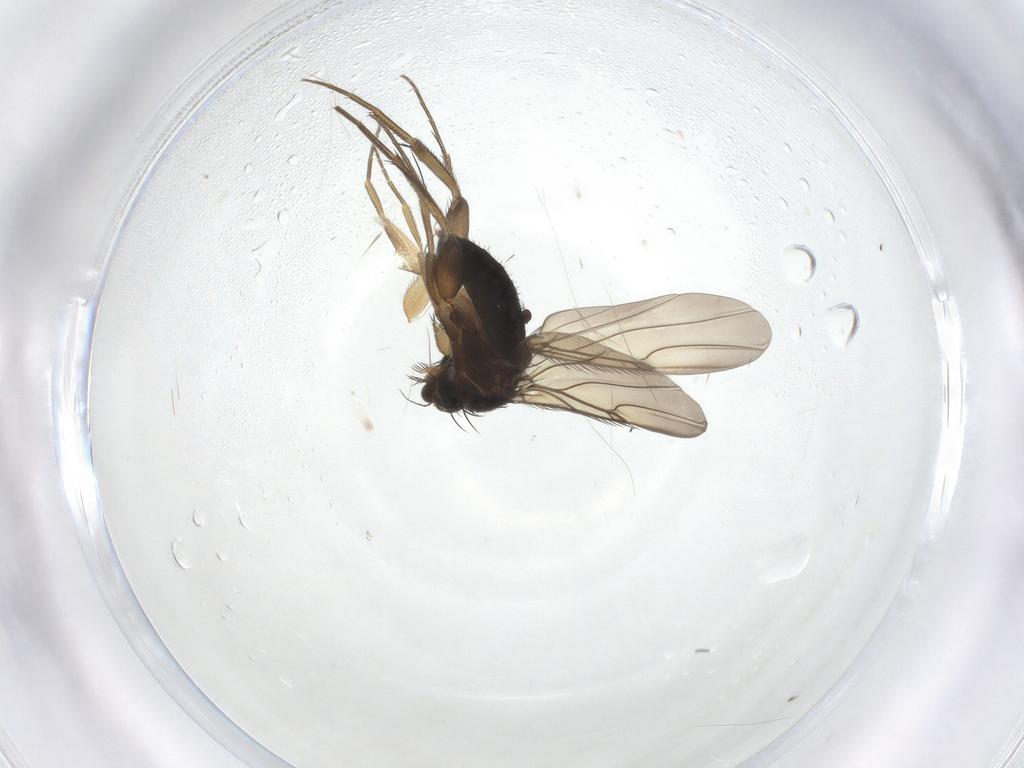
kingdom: Animalia
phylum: Arthropoda
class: Insecta
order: Diptera
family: Phoridae
